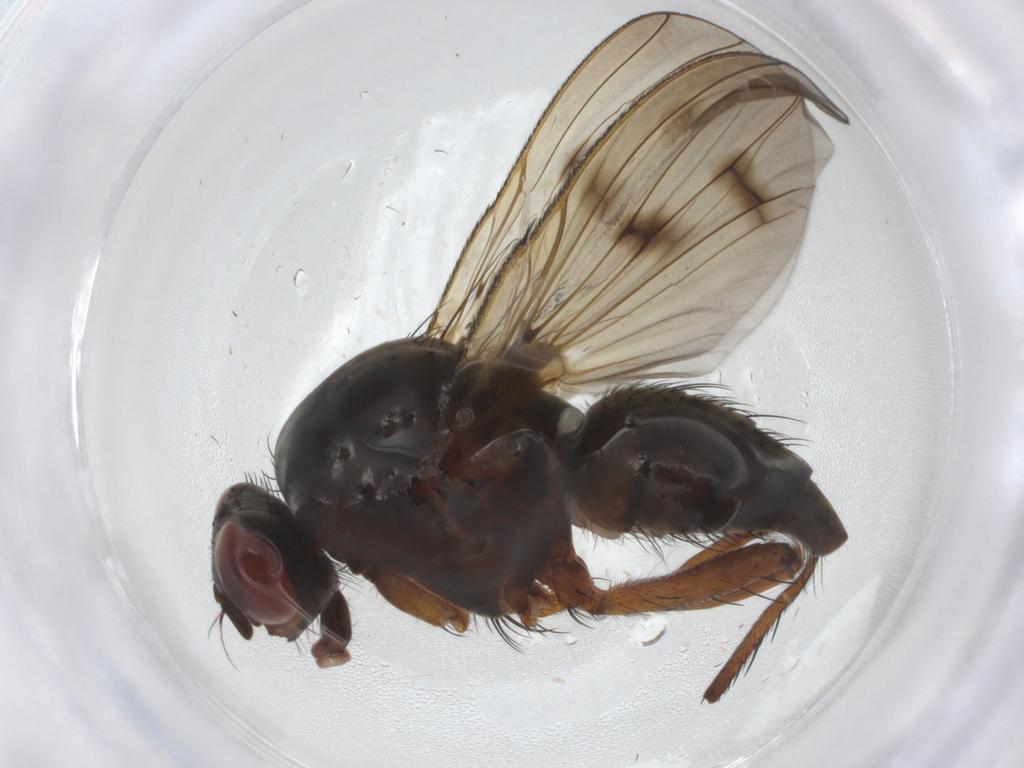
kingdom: Animalia
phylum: Arthropoda
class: Insecta
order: Diptera
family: Anthomyiidae
